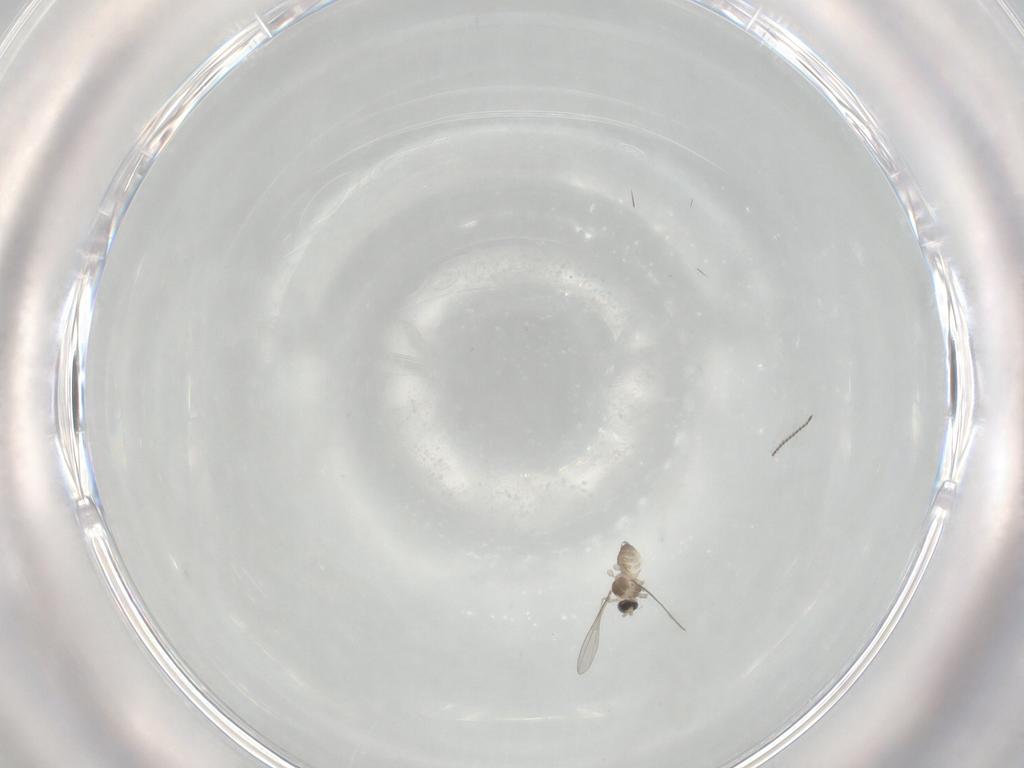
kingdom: Animalia
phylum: Arthropoda
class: Insecta
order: Diptera
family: Cecidomyiidae
